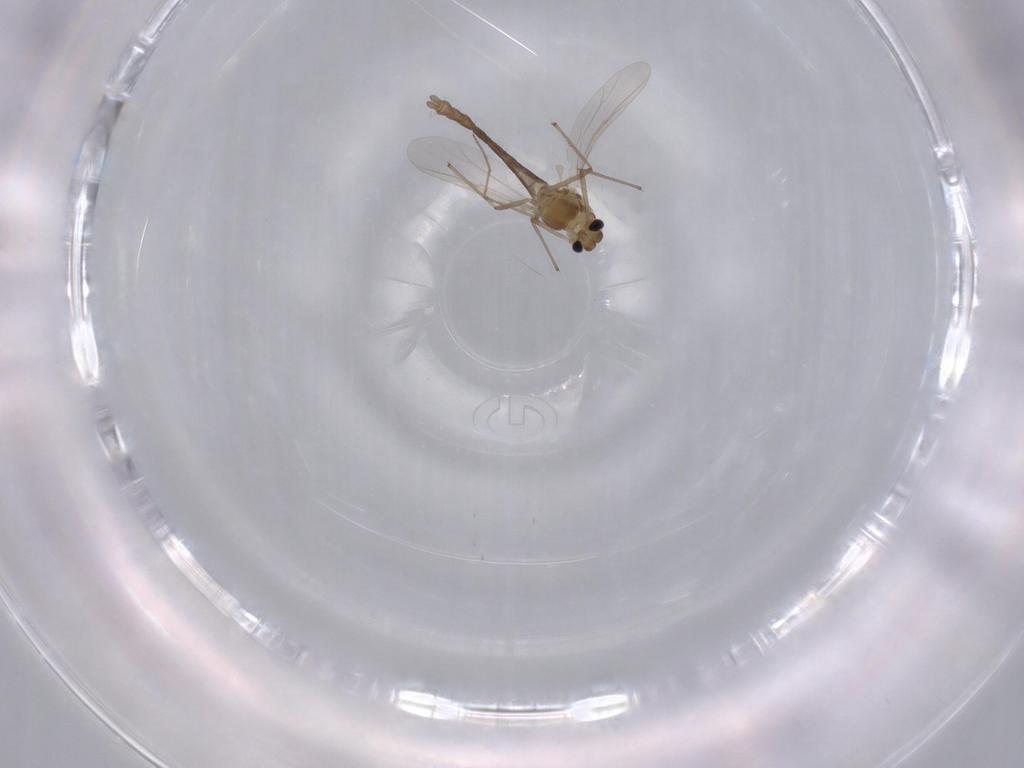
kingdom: Animalia
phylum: Arthropoda
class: Insecta
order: Diptera
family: Chironomidae
